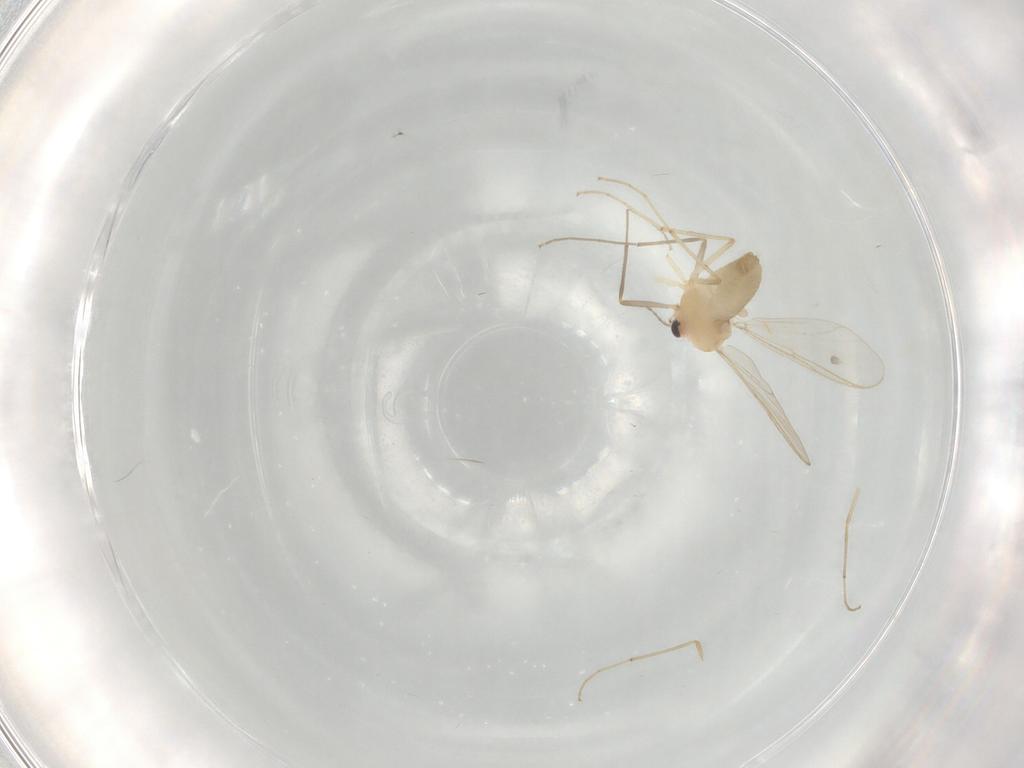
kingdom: Animalia
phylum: Arthropoda
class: Insecta
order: Diptera
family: Chironomidae
